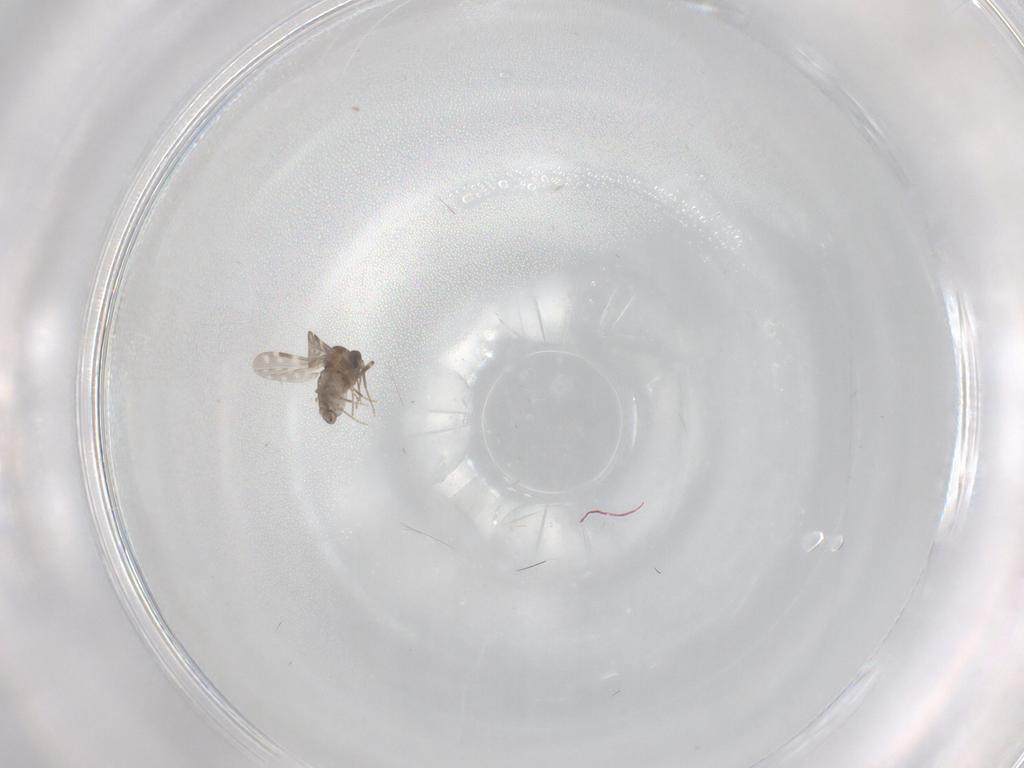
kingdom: Animalia
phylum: Arthropoda
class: Insecta
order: Diptera
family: Ceratopogonidae
